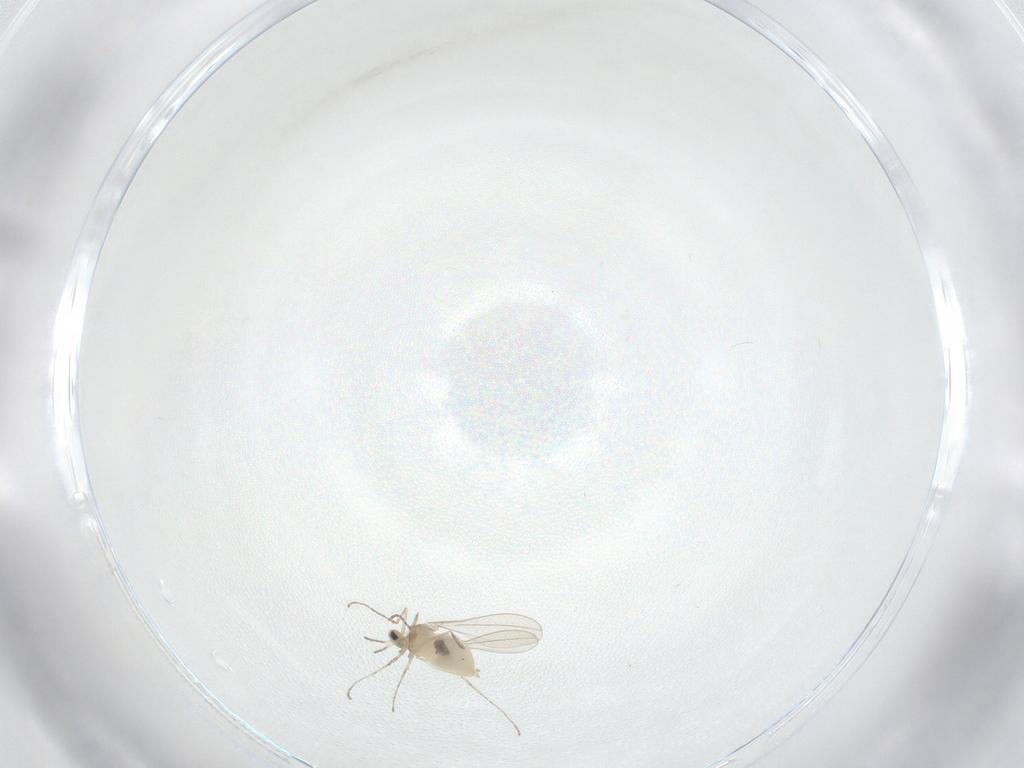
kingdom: Animalia
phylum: Arthropoda
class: Insecta
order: Diptera
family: Cecidomyiidae
